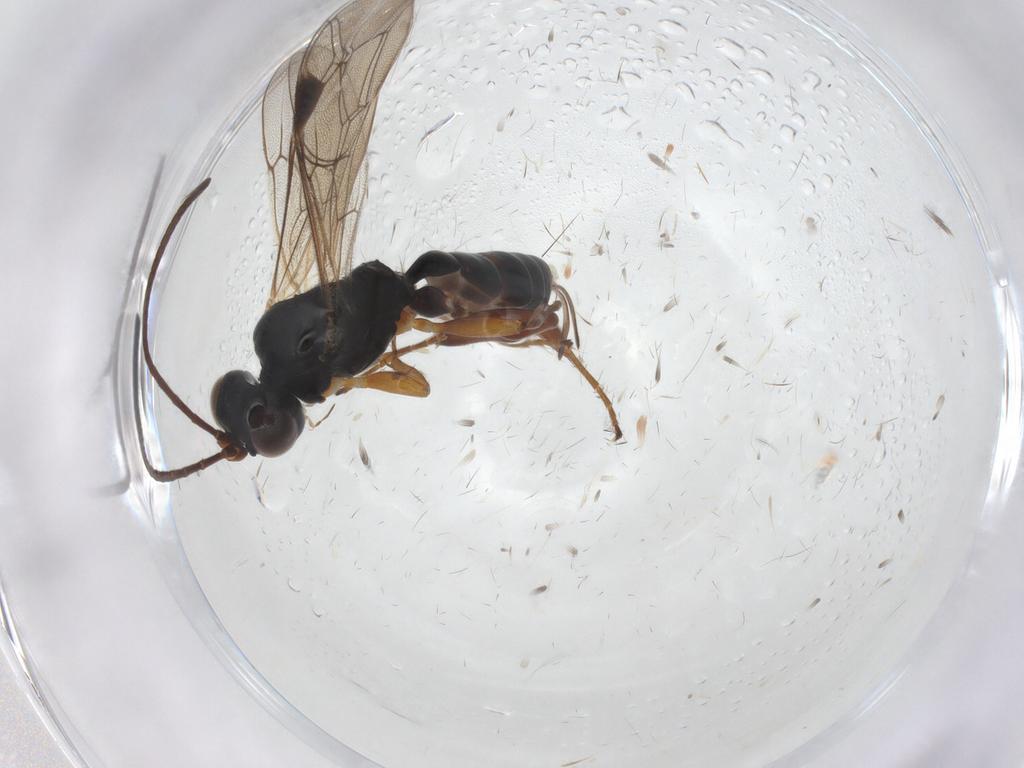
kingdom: Animalia
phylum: Arthropoda
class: Insecta
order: Hymenoptera
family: Ichneumonidae
